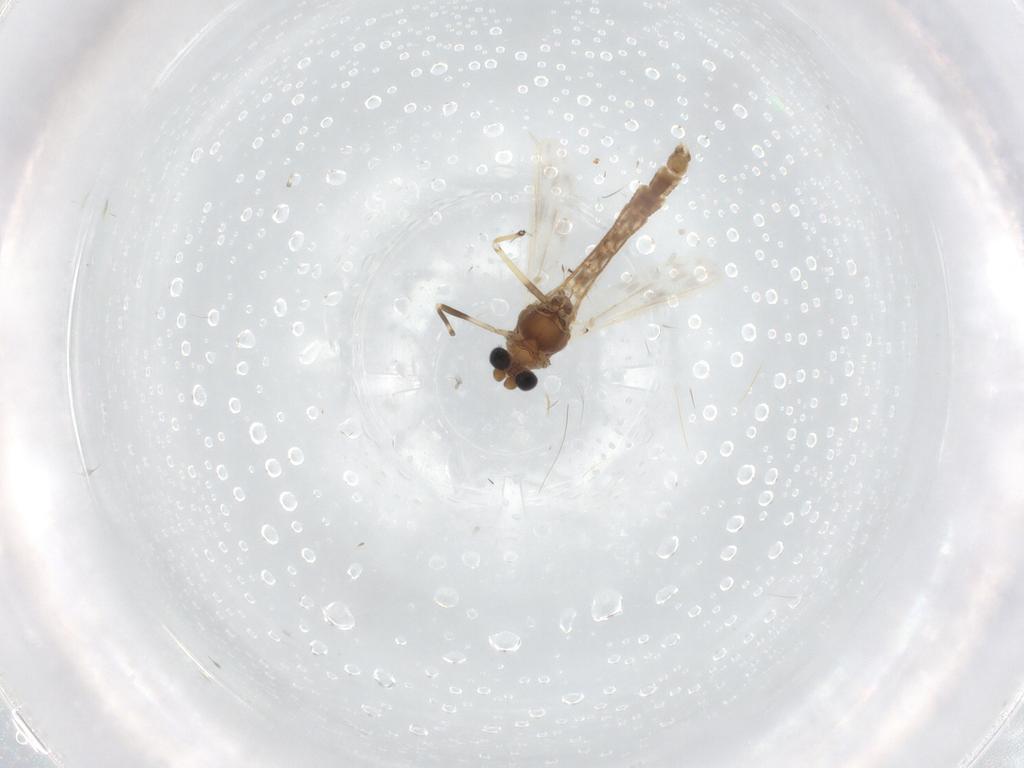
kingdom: Animalia
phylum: Arthropoda
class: Insecta
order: Diptera
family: Chironomidae
